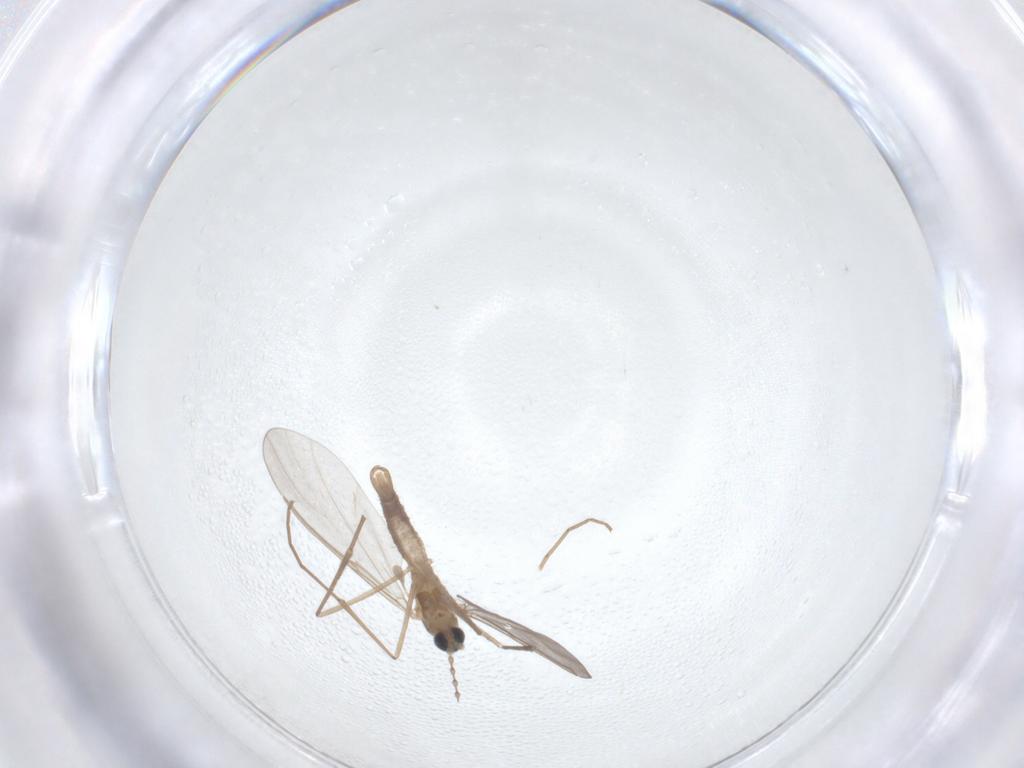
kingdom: Animalia
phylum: Arthropoda
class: Insecta
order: Diptera
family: Cecidomyiidae
